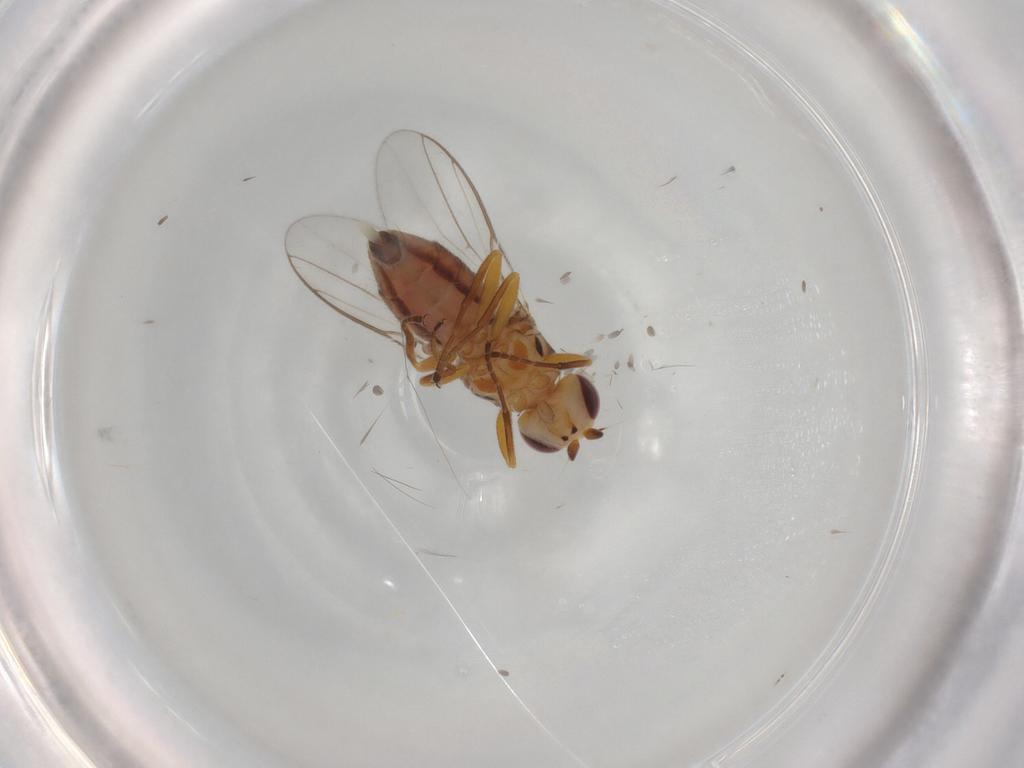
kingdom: Animalia
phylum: Arthropoda
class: Insecta
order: Diptera
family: Chloropidae
